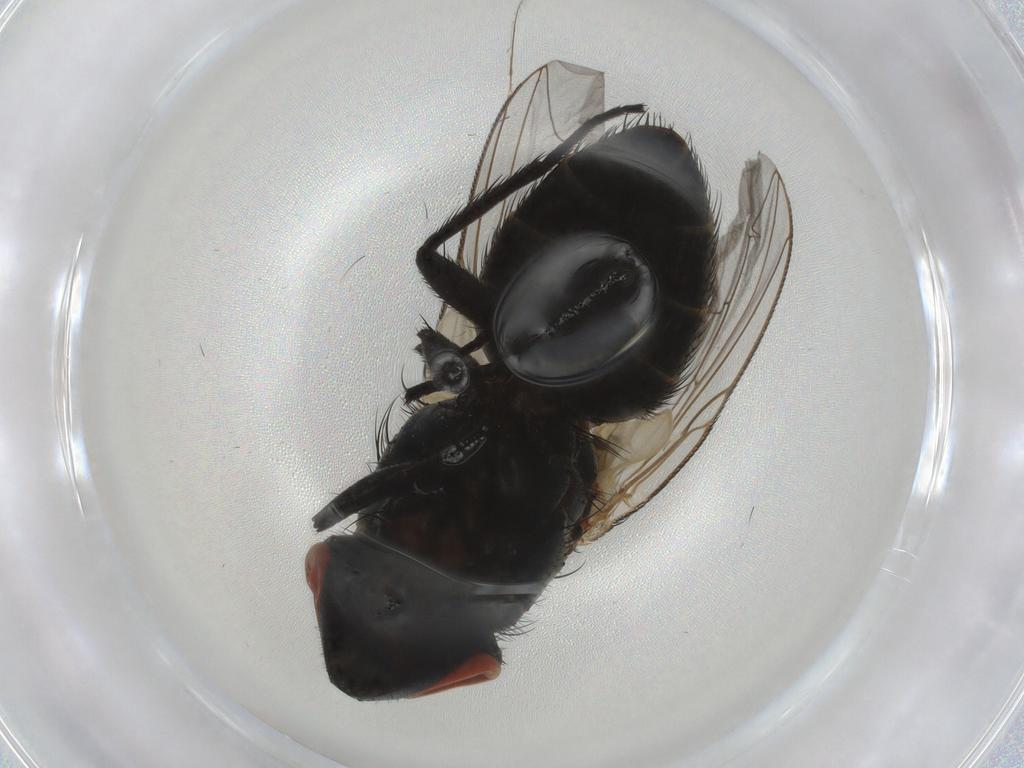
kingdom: Animalia
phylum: Arthropoda
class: Insecta
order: Diptera
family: Sarcophagidae
